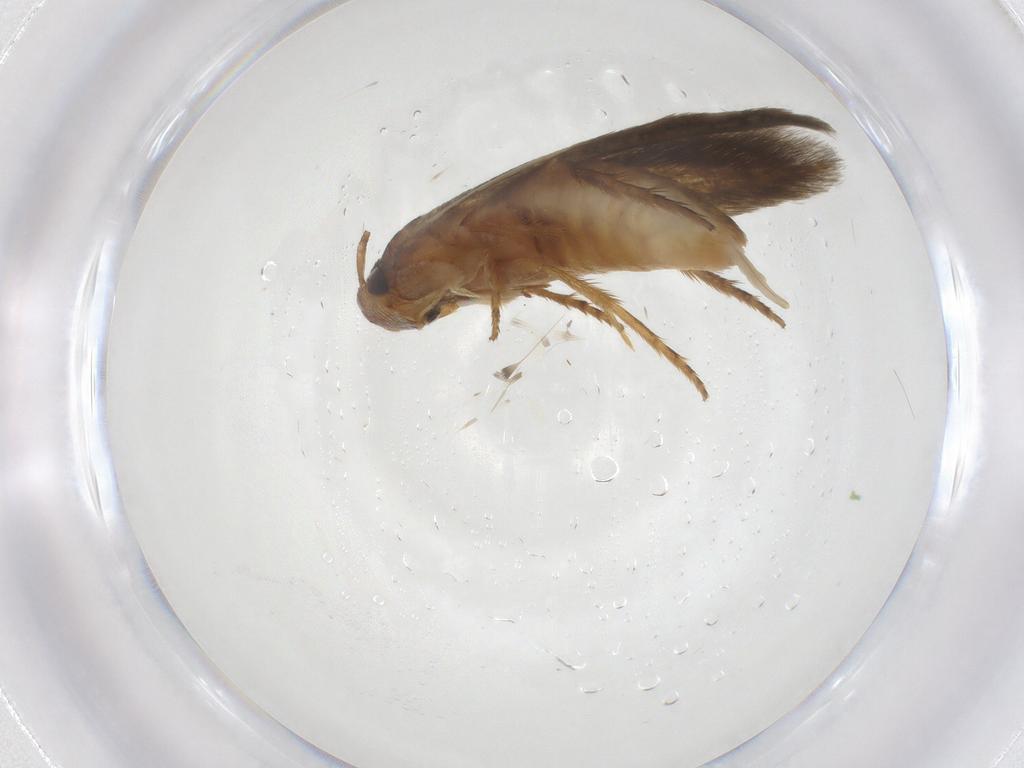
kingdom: Animalia
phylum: Arthropoda
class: Insecta
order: Lepidoptera
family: Tineidae
